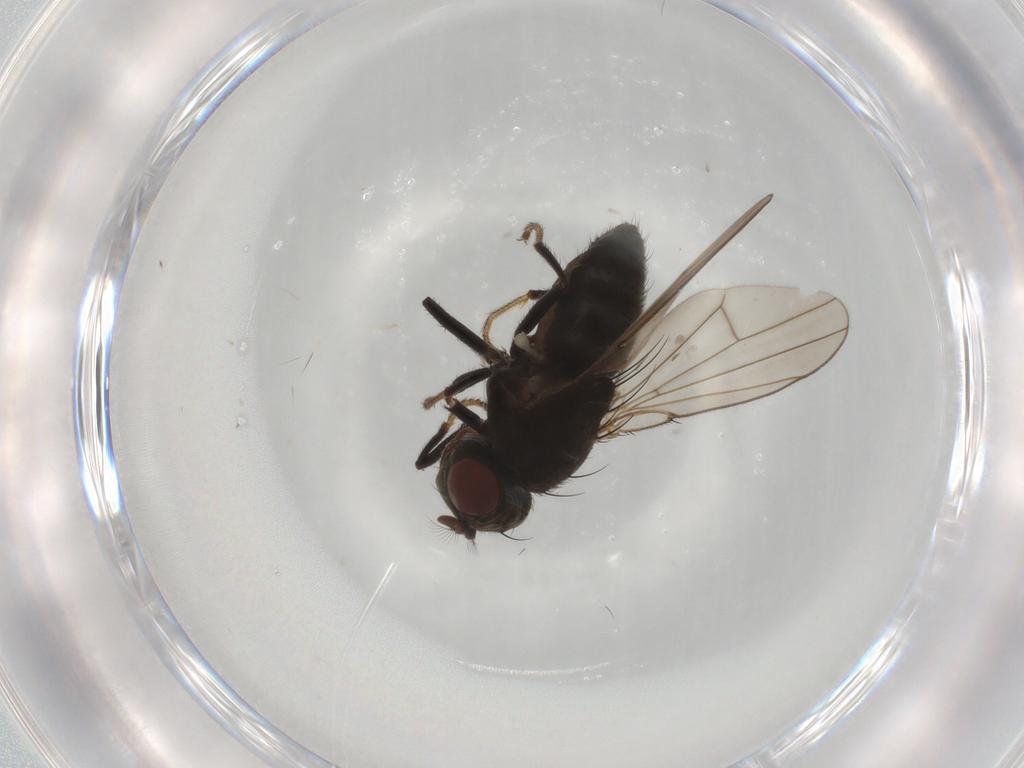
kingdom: Animalia
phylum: Arthropoda
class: Insecta
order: Diptera
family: Ephydridae
